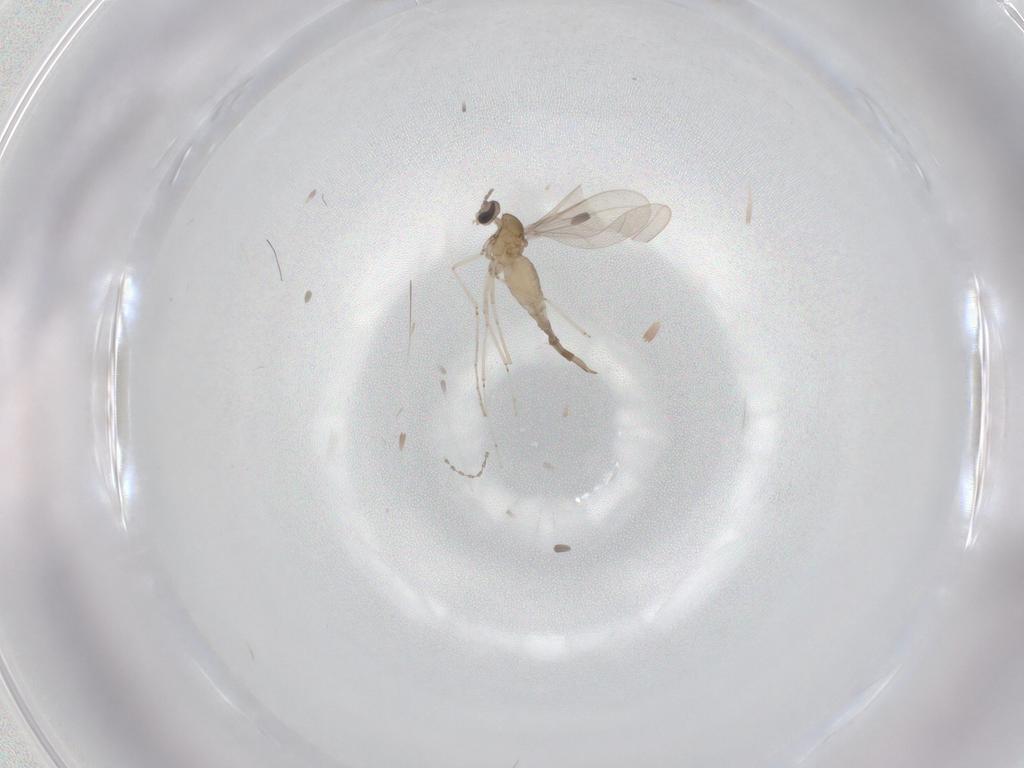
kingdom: Animalia
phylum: Arthropoda
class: Insecta
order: Diptera
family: Cecidomyiidae
